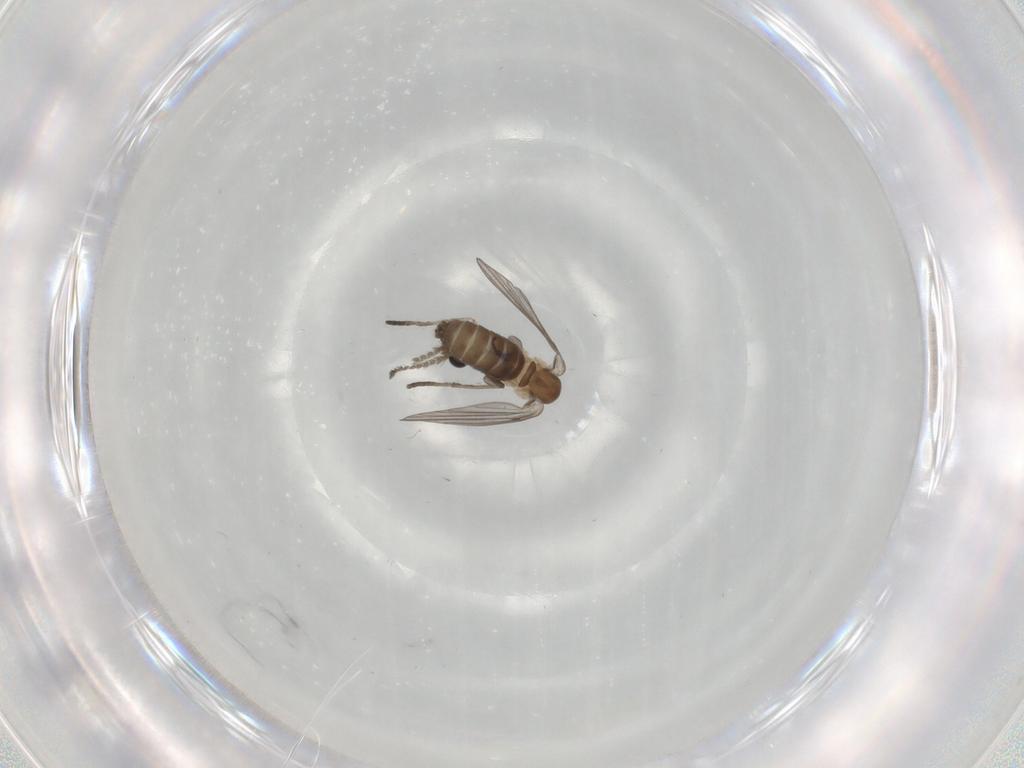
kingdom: Animalia
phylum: Arthropoda
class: Insecta
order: Diptera
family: Psychodidae
